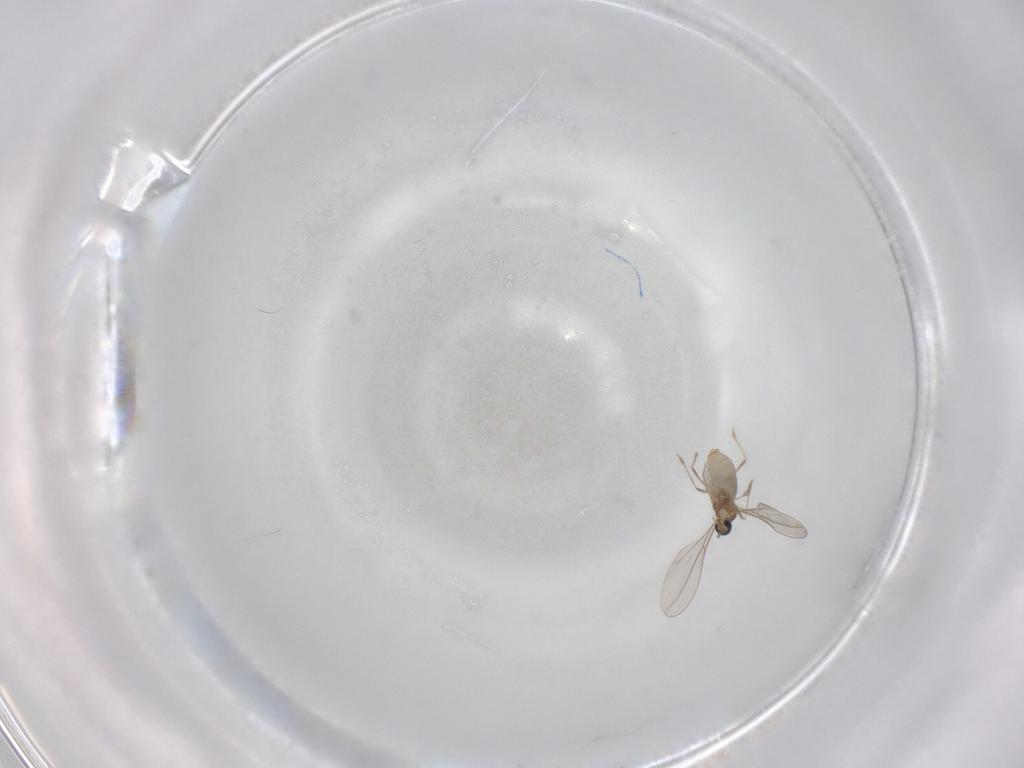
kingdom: Animalia
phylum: Arthropoda
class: Insecta
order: Diptera
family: Cecidomyiidae
